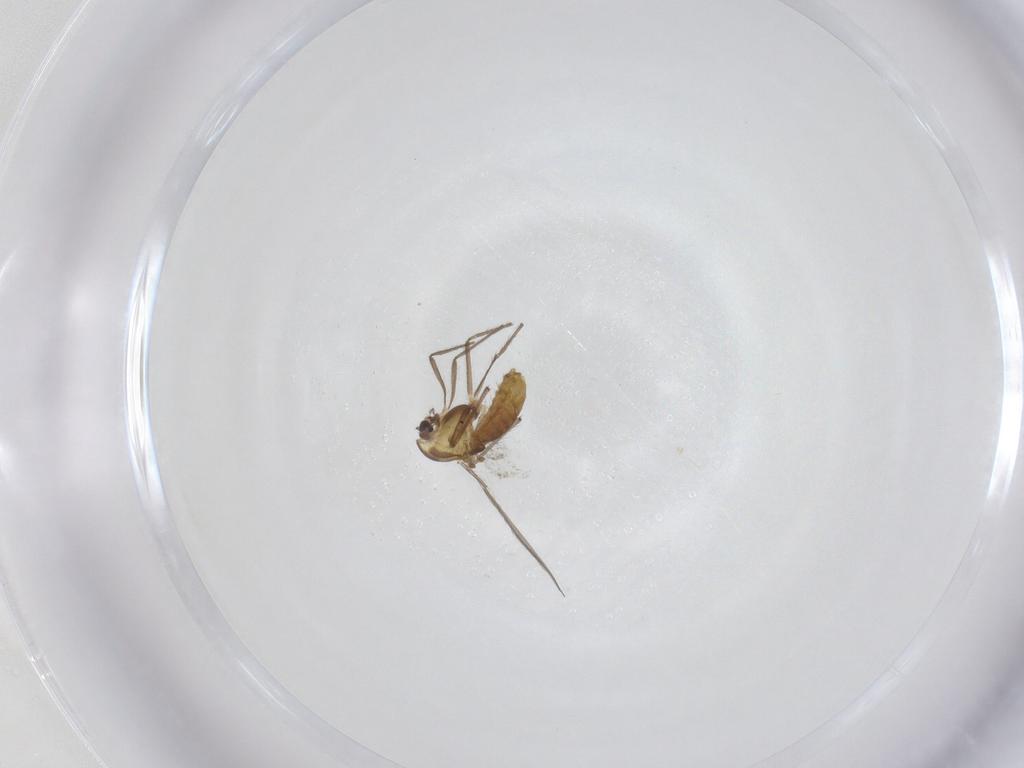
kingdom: Animalia
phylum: Arthropoda
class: Insecta
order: Diptera
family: Chironomidae
